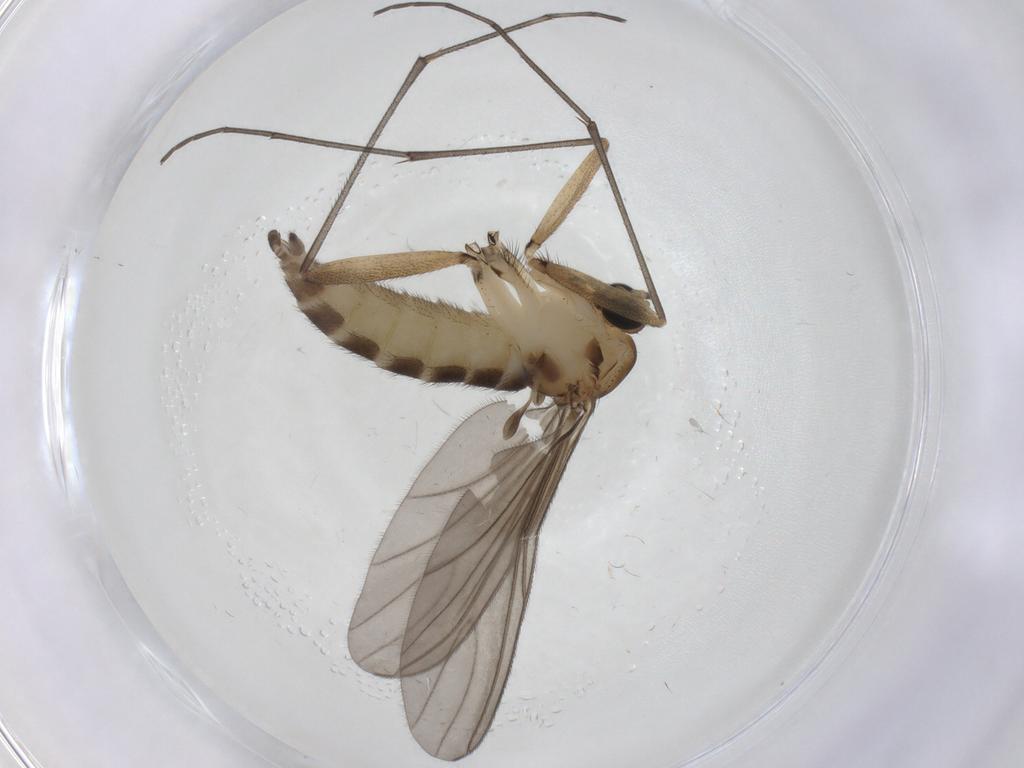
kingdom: Animalia
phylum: Arthropoda
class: Insecta
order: Diptera
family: Sciaridae
